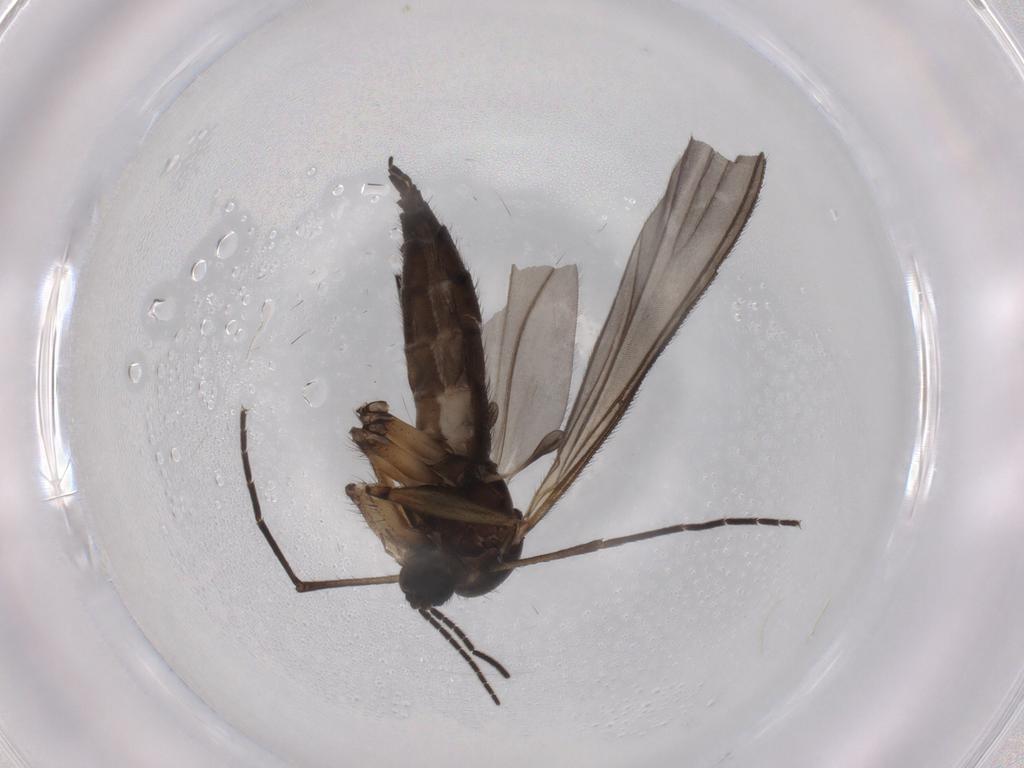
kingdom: Animalia
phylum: Arthropoda
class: Insecta
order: Diptera
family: Sciaridae
